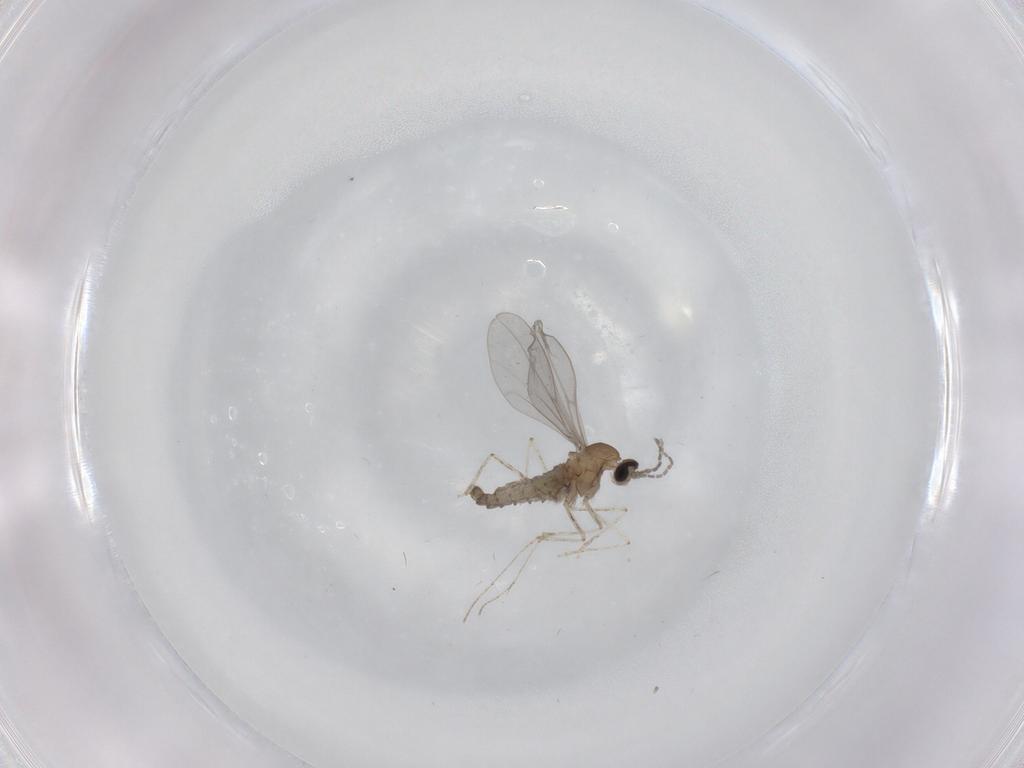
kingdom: Animalia
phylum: Arthropoda
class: Insecta
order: Diptera
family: Cecidomyiidae
